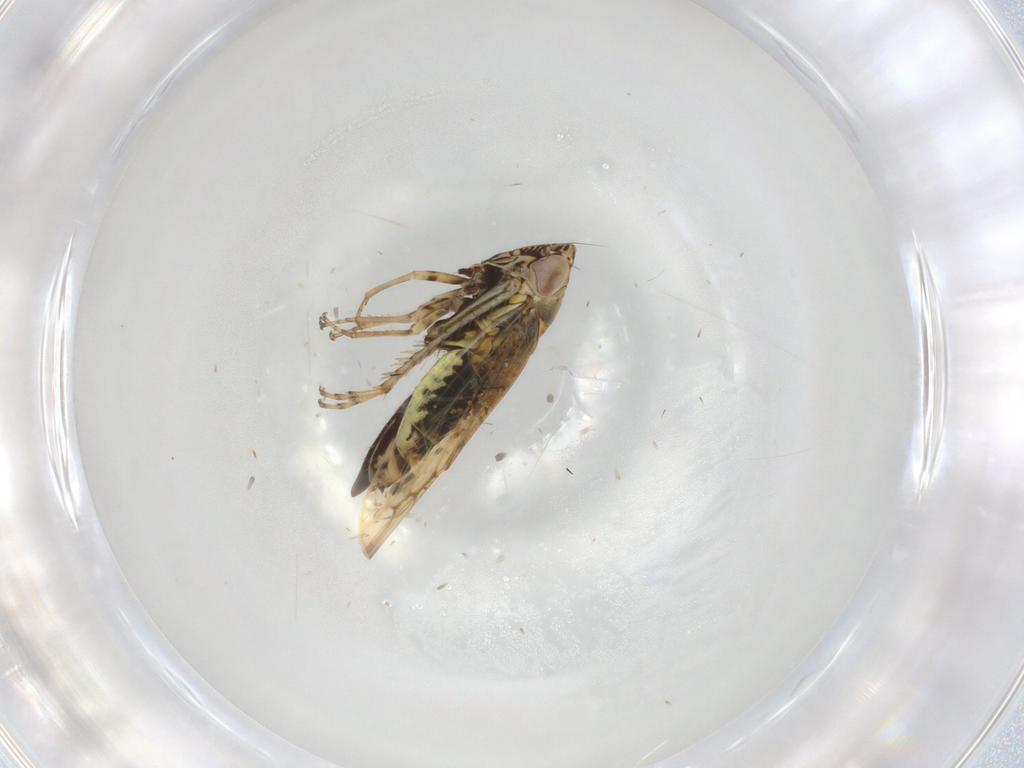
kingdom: Animalia
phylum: Arthropoda
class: Insecta
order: Hemiptera
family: Cicadellidae
